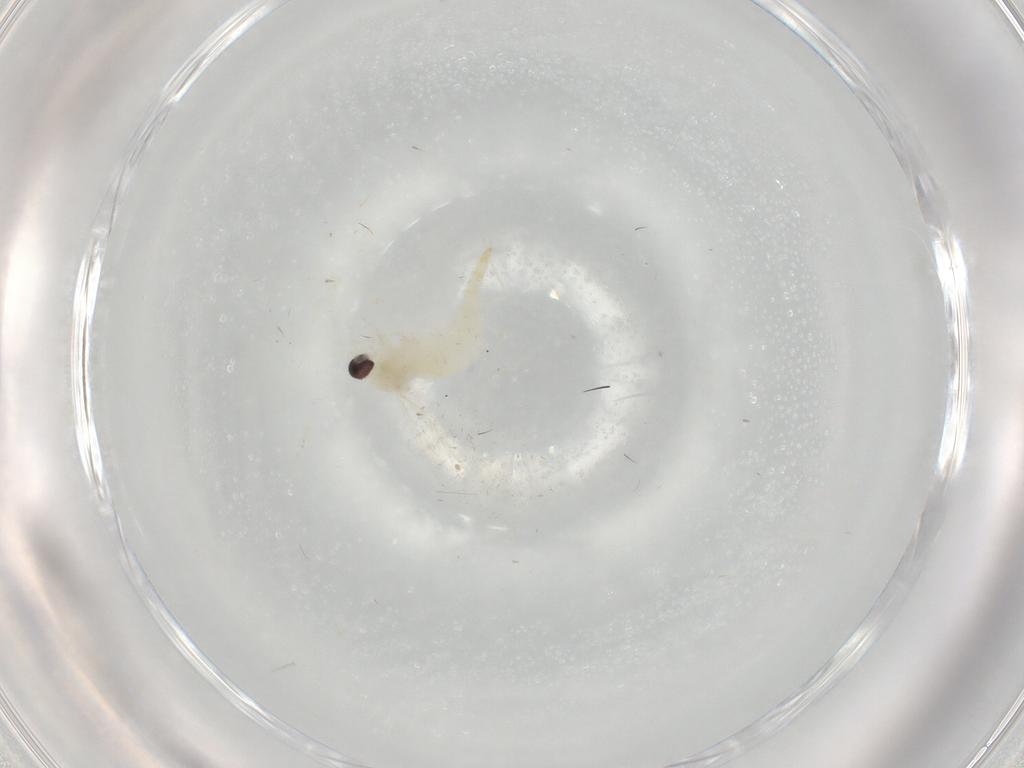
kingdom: Animalia
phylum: Arthropoda
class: Insecta
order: Diptera
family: Cecidomyiidae
